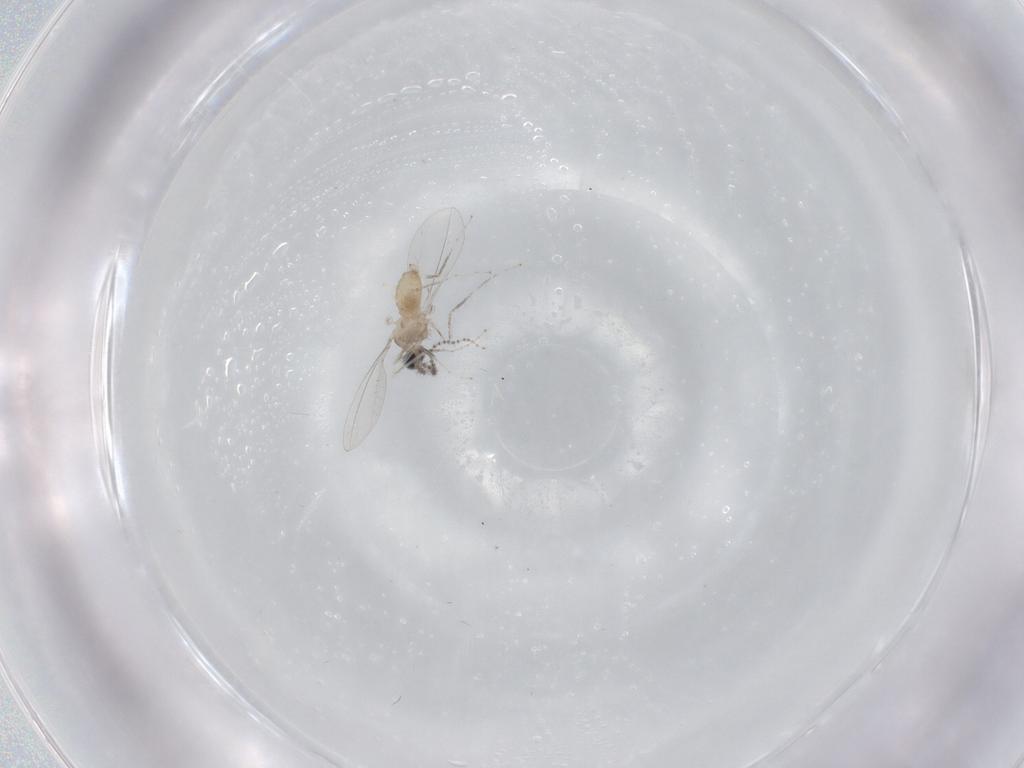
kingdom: Animalia
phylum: Arthropoda
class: Insecta
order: Diptera
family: Cecidomyiidae
